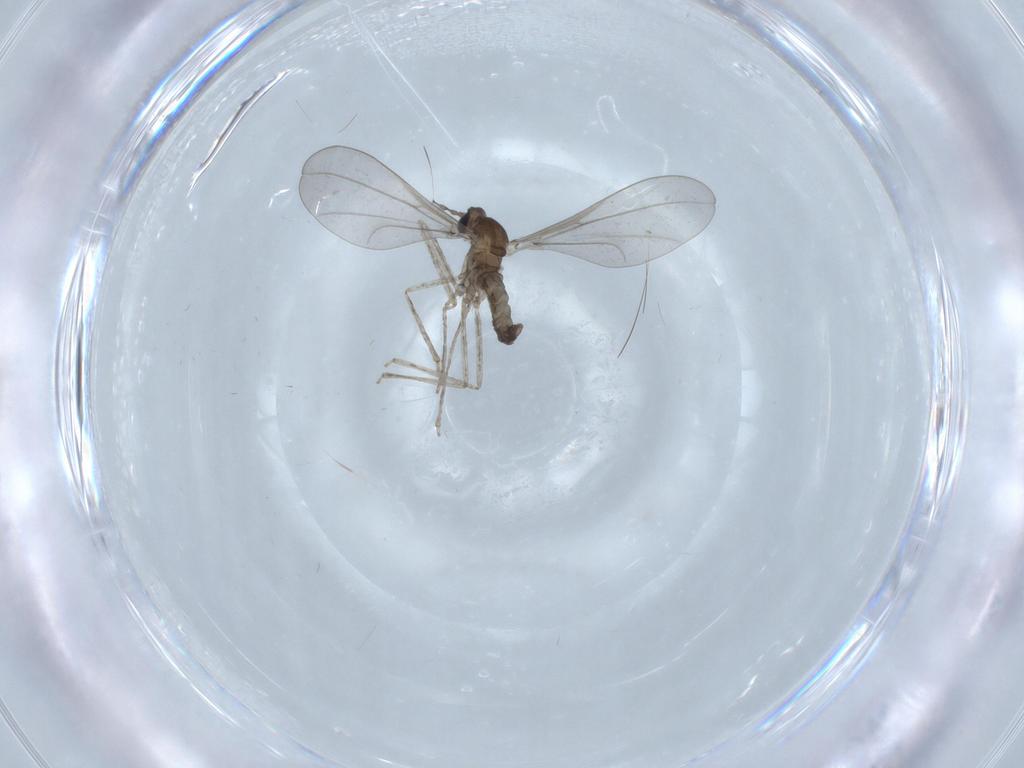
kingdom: Animalia
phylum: Arthropoda
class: Insecta
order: Diptera
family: Cecidomyiidae
